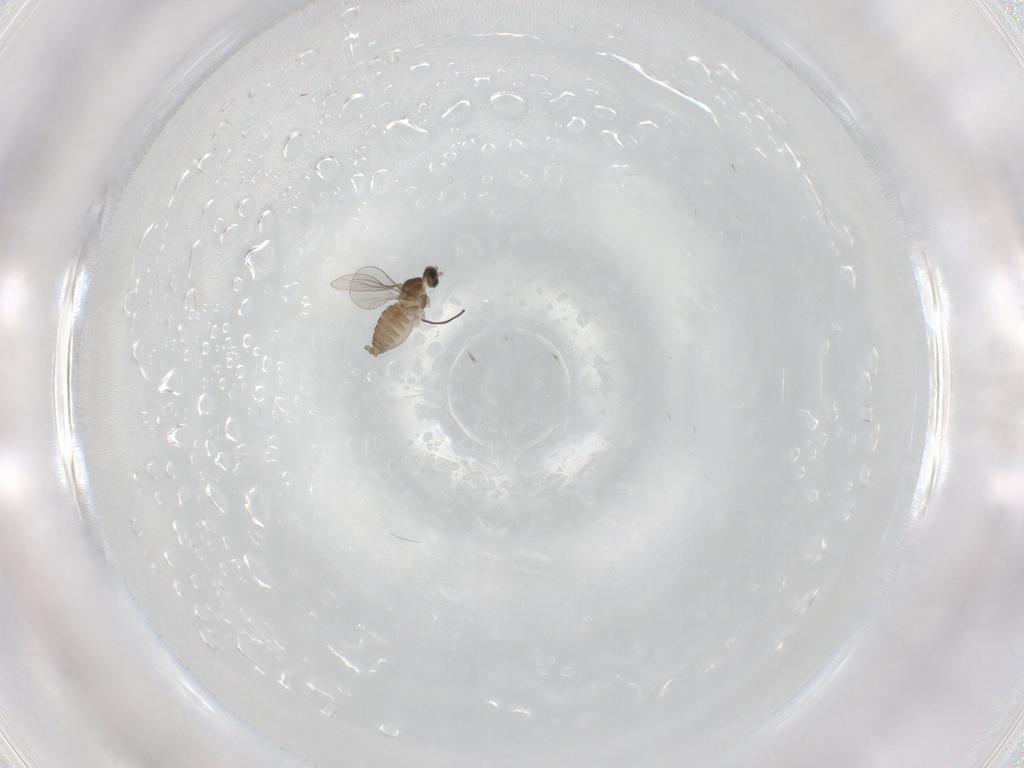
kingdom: Animalia
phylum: Arthropoda
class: Insecta
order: Diptera
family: Cecidomyiidae
